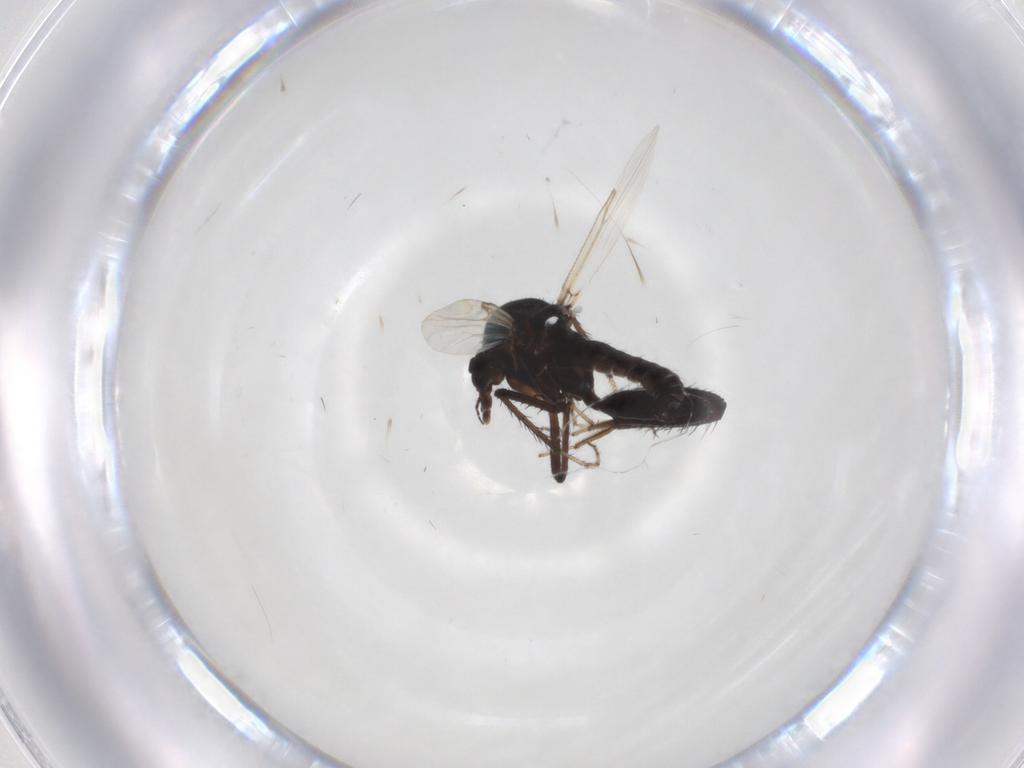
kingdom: Animalia
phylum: Arthropoda
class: Insecta
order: Diptera
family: Ceratopogonidae
